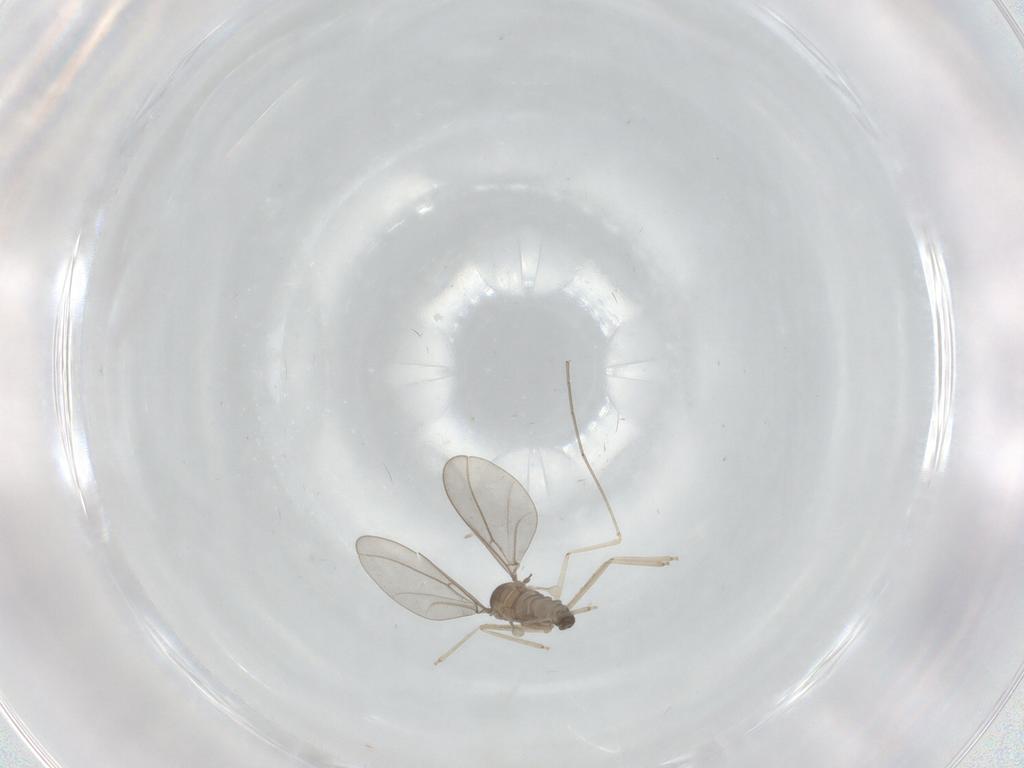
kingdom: Animalia
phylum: Arthropoda
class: Insecta
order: Diptera
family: Cecidomyiidae
